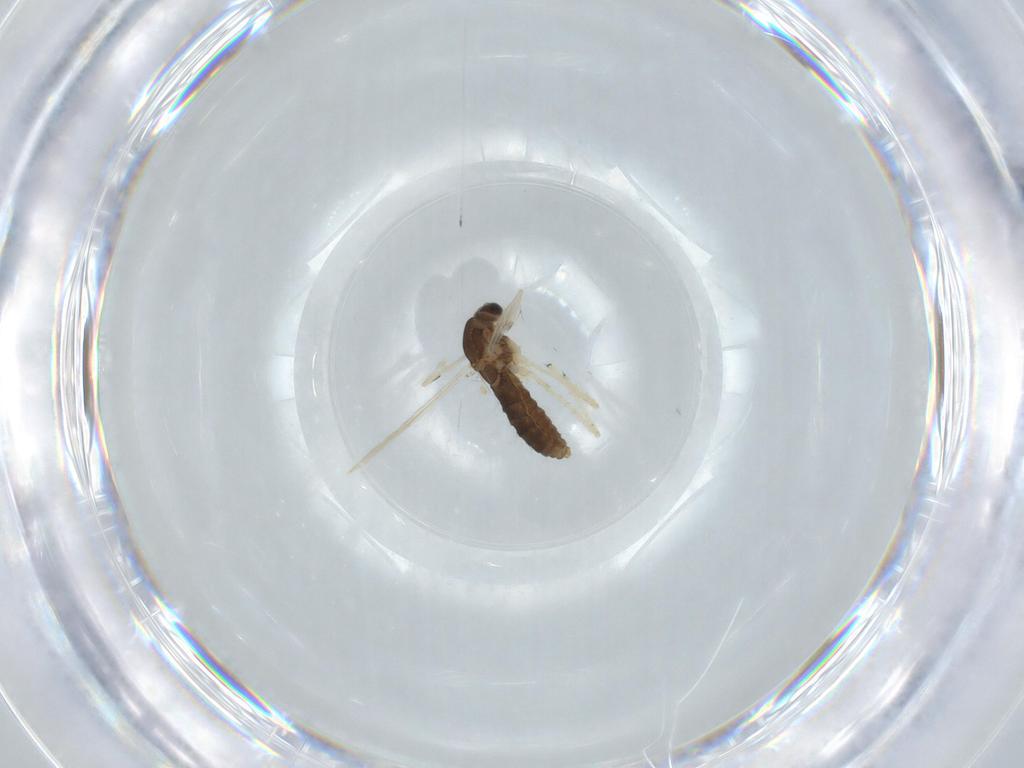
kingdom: Animalia
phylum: Arthropoda
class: Insecta
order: Diptera
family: Chironomidae
